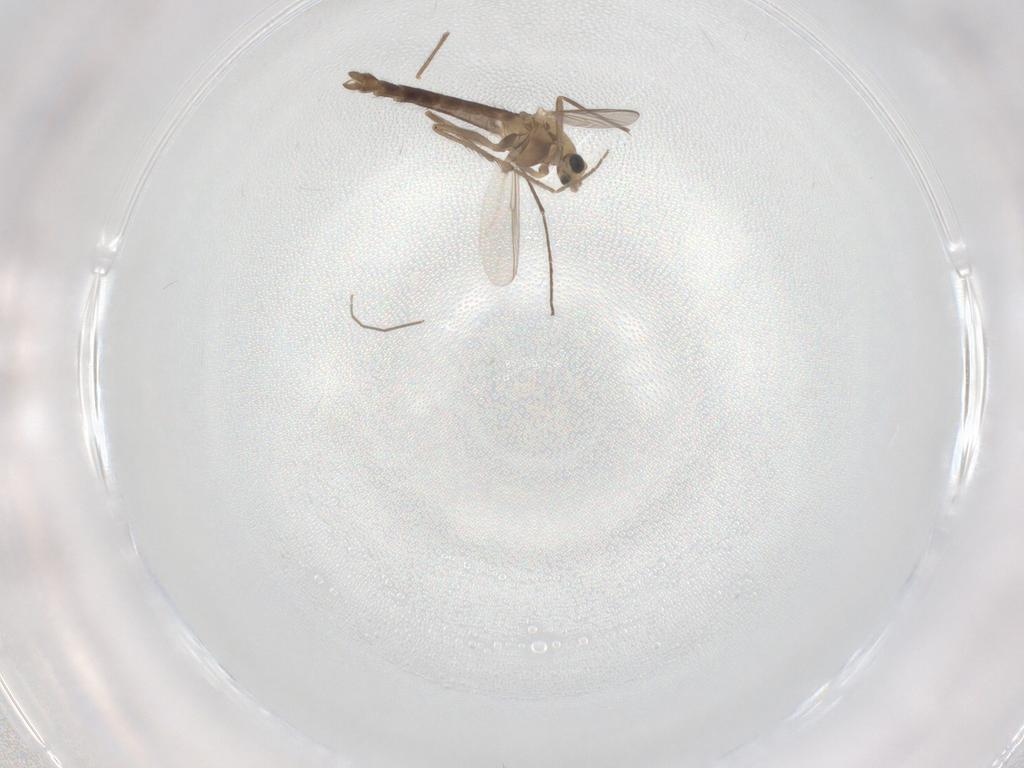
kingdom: Animalia
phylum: Arthropoda
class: Insecta
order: Diptera
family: Chironomidae
